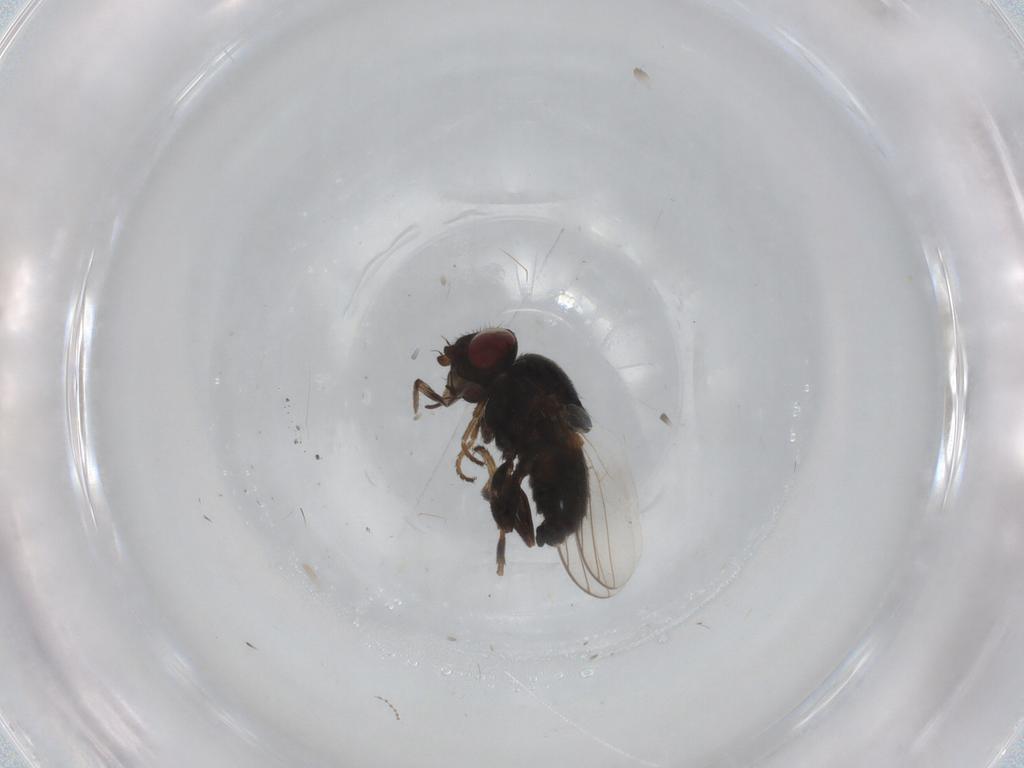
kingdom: Animalia
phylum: Arthropoda
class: Insecta
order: Diptera
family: Chloropidae
